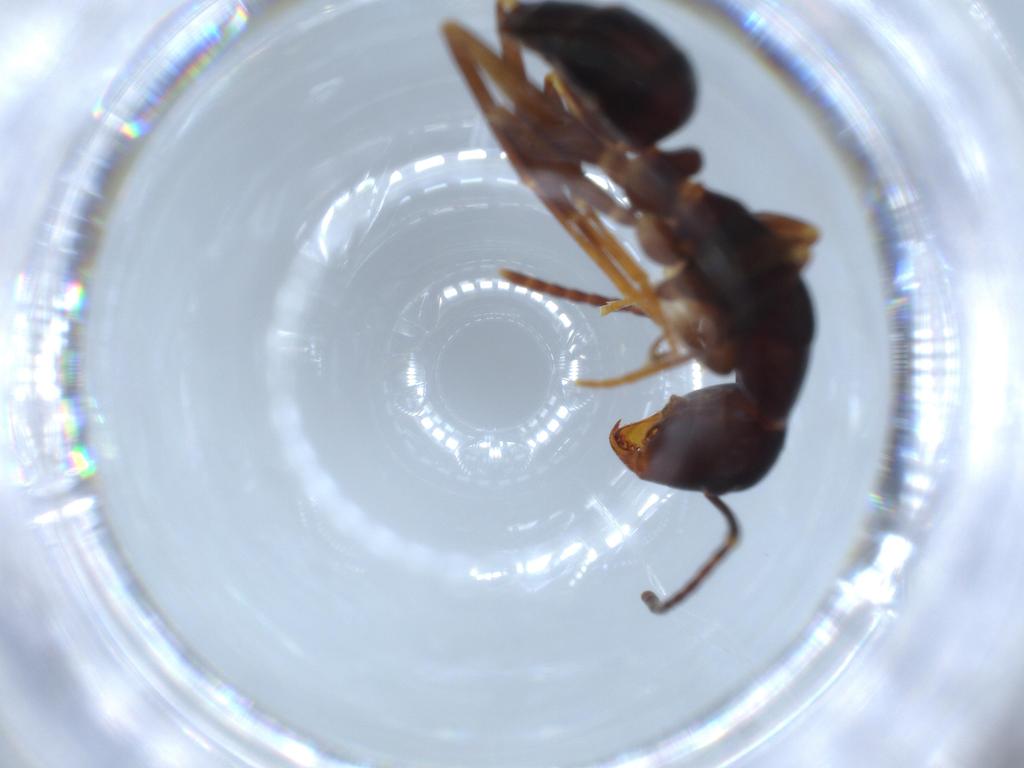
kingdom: Animalia
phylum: Arthropoda
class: Insecta
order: Hymenoptera
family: Formicidae
